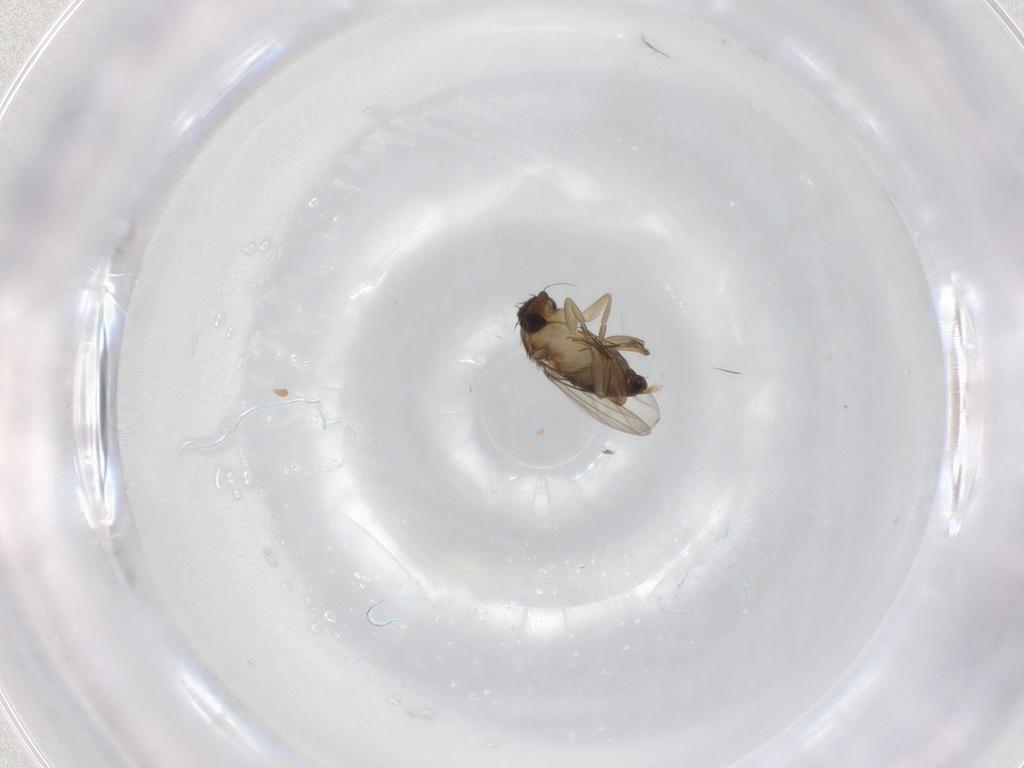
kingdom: Animalia
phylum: Arthropoda
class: Insecta
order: Diptera
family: Phoridae
